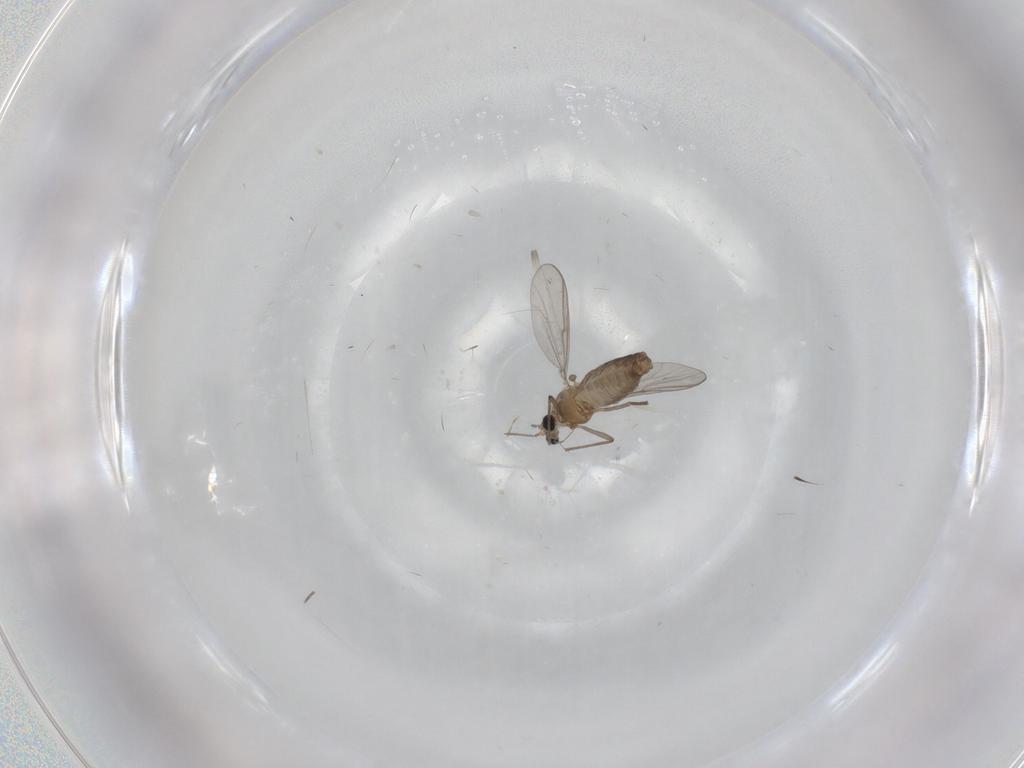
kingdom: Animalia
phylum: Arthropoda
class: Insecta
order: Diptera
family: Chironomidae
